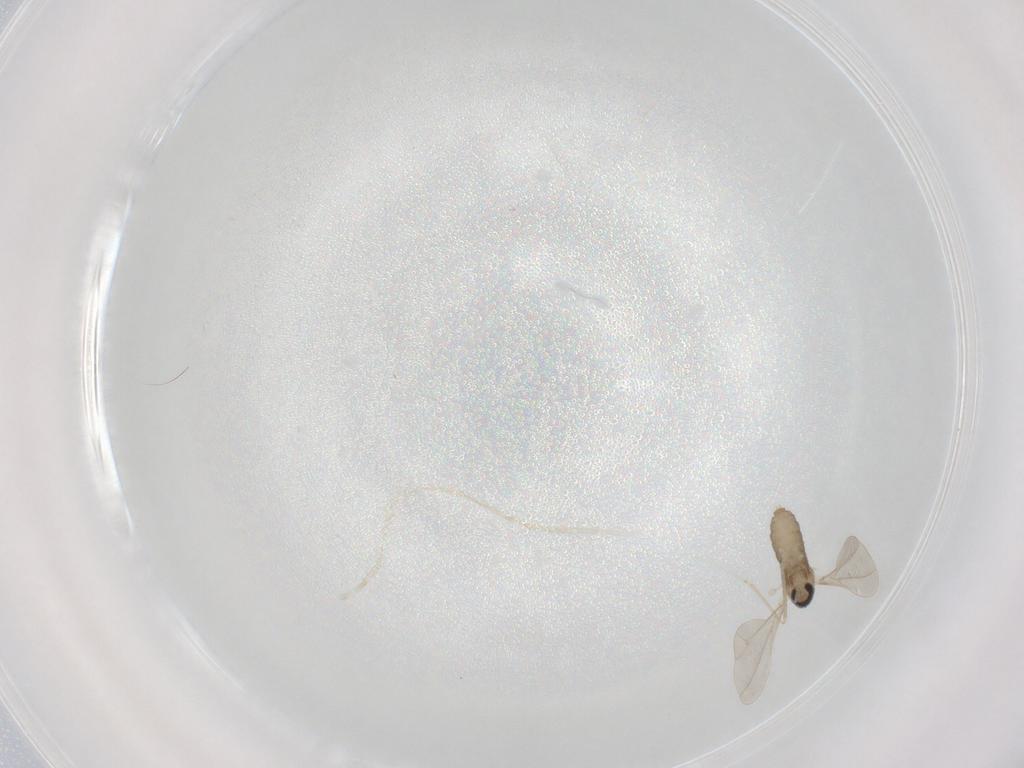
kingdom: Animalia
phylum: Arthropoda
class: Insecta
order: Diptera
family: Cecidomyiidae
